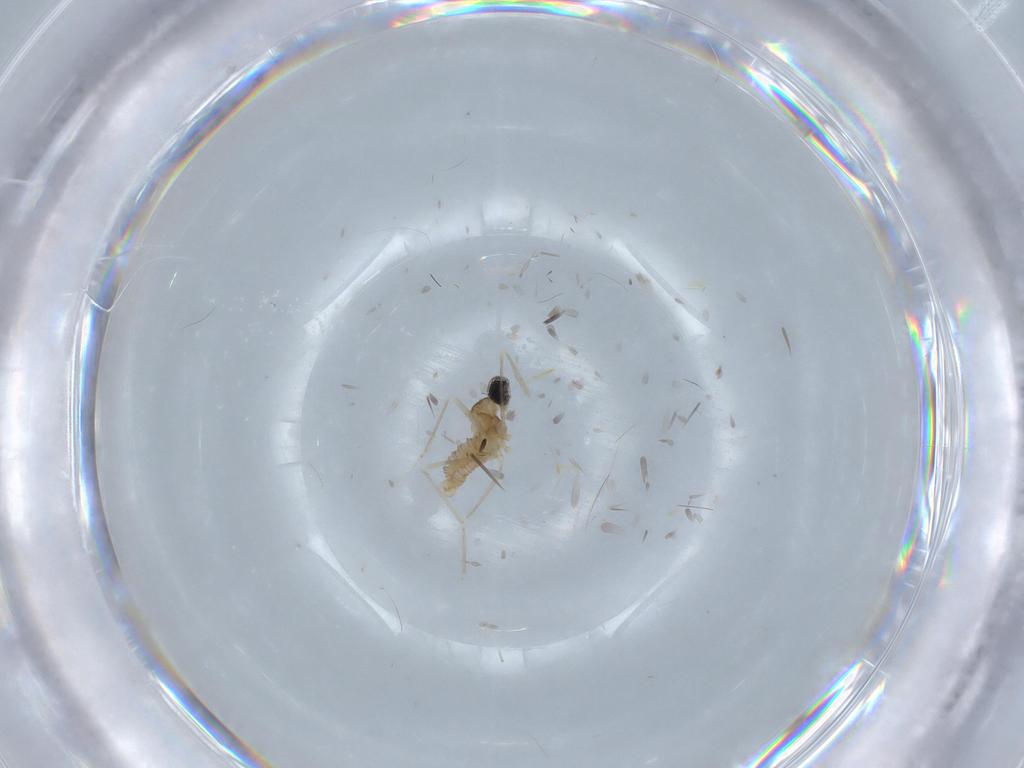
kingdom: Animalia
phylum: Arthropoda
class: Insecta
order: Diptera
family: Cecidomyiidae
